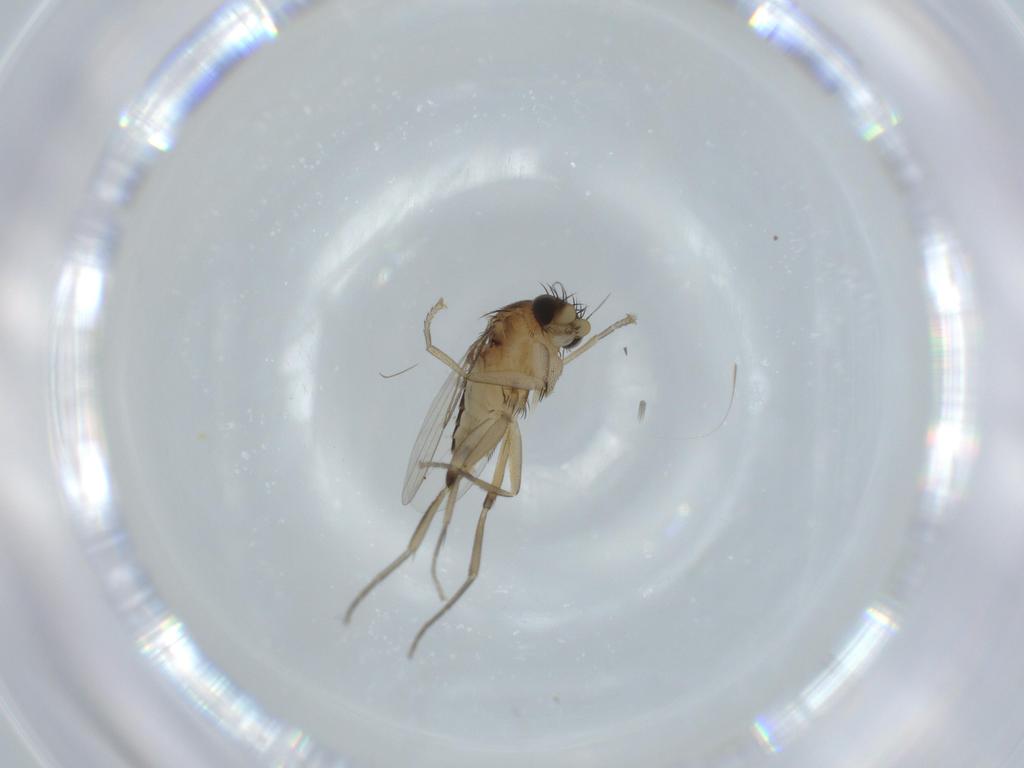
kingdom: Animalia
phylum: Arthropoda
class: Insecta
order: Diptera
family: Phoridae
